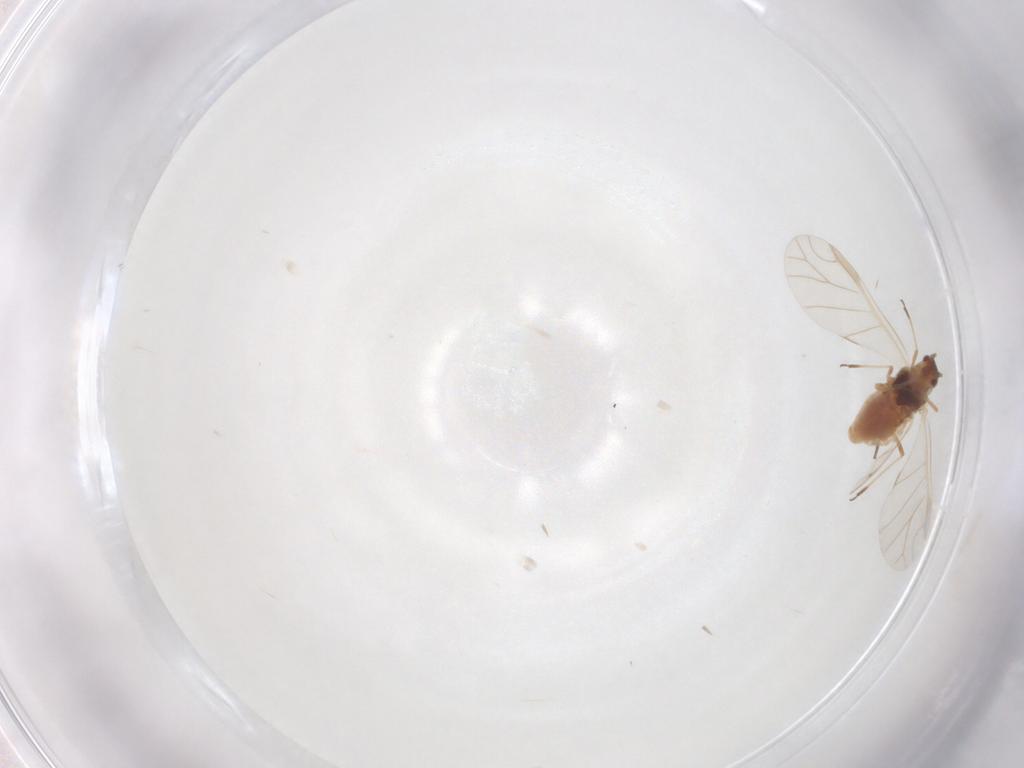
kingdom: Animalia
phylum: Arthropoda
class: Insecta
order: Hemiptera
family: Aphididae
